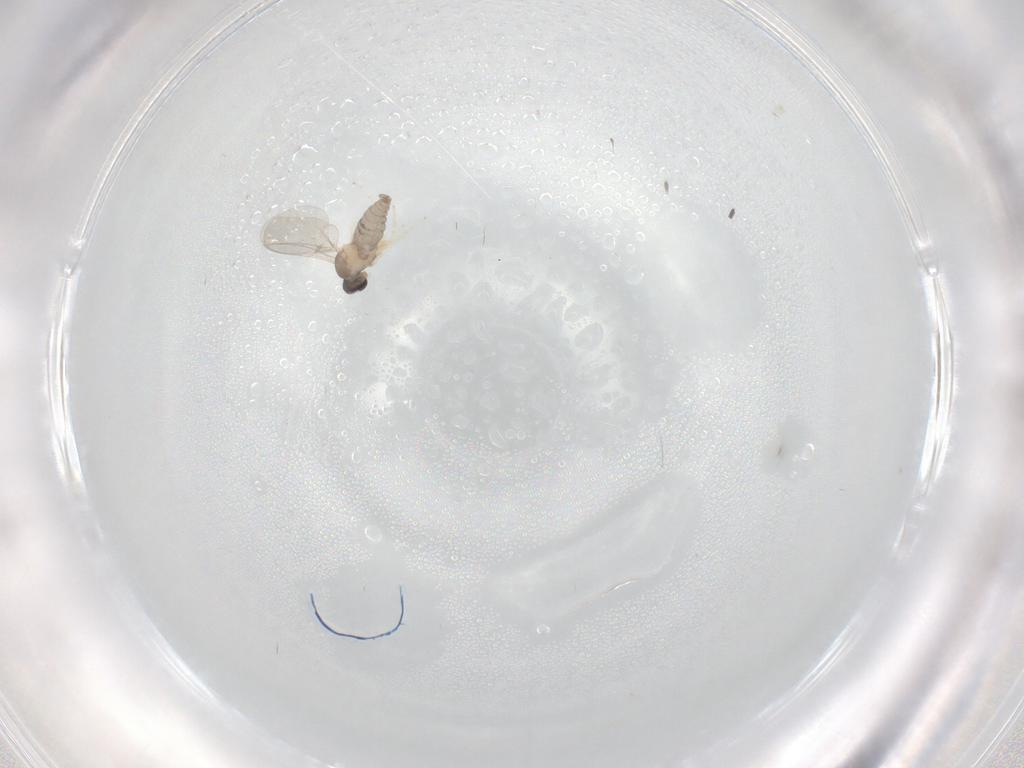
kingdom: Animalia
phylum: Arthropoda
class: Insecta
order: Diptera
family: Cecidomyiidae
